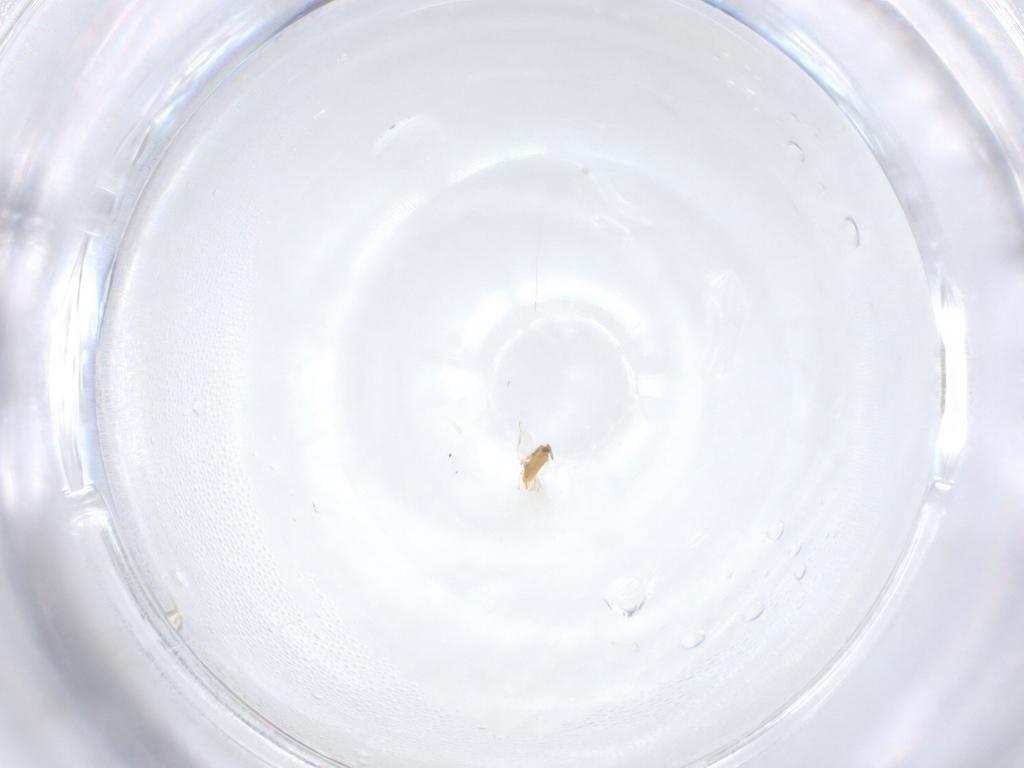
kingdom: Animalia
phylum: Arthropoda
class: Insecta
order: Hymenoptera
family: Aphelinidae
